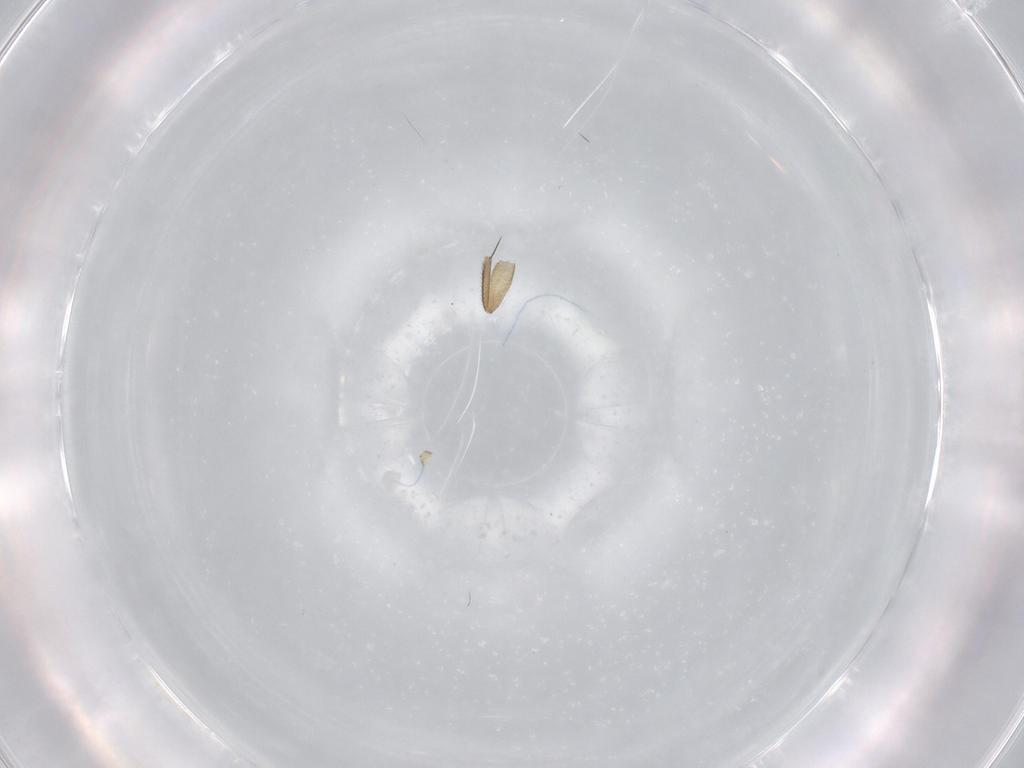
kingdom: Animalia
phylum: Arthropoda
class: Insecta
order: Diptera
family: Phoridae
